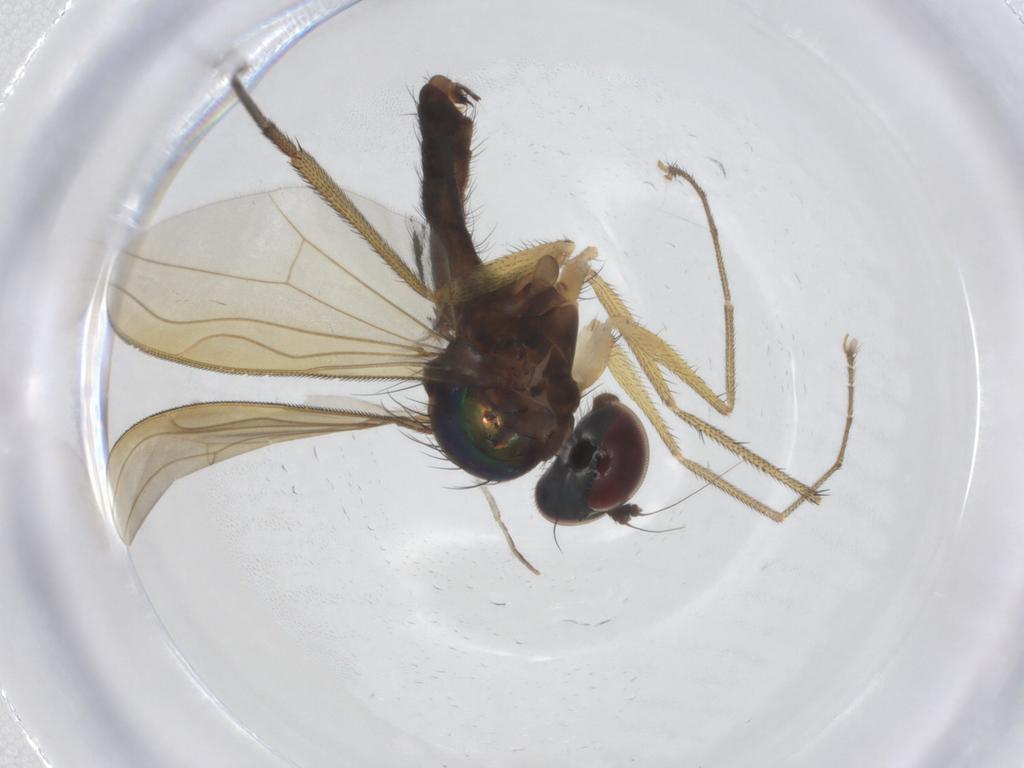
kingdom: Animalia
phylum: Arthropoda
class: Insecta
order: Diptera
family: Dolichopodidae
